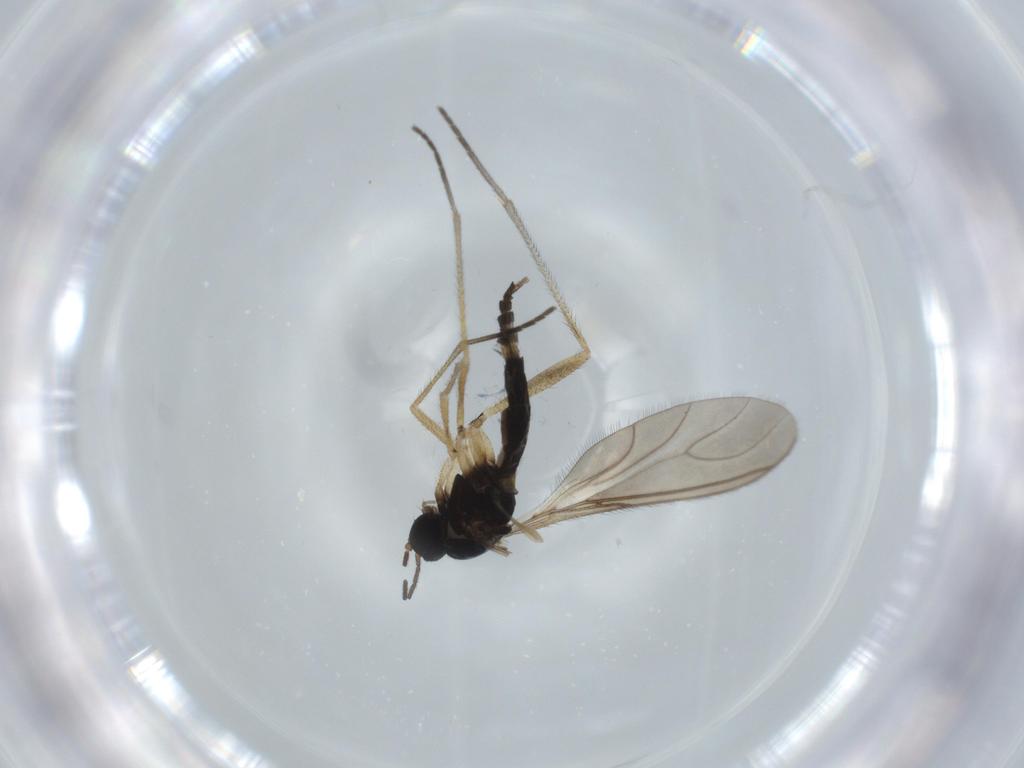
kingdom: Animalia
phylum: Arthropoda
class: Insecta
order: Diptera
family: Sciaridae
